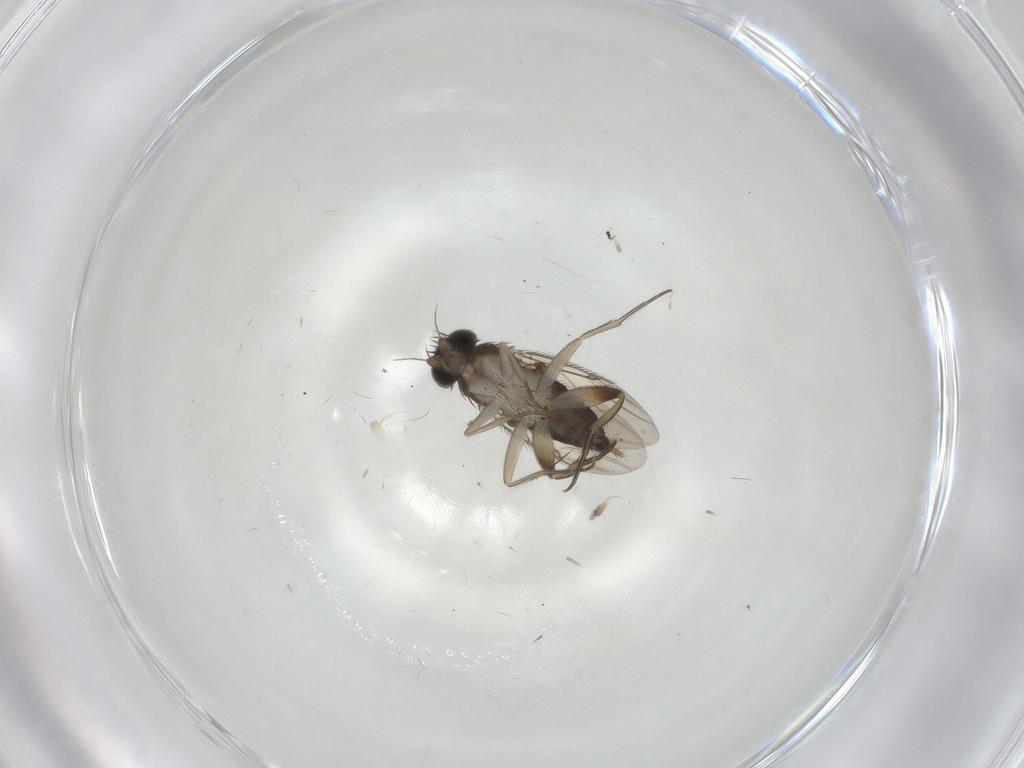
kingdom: Animalia
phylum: Arthropoda
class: Insecta
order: Diptera
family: Phoridae
